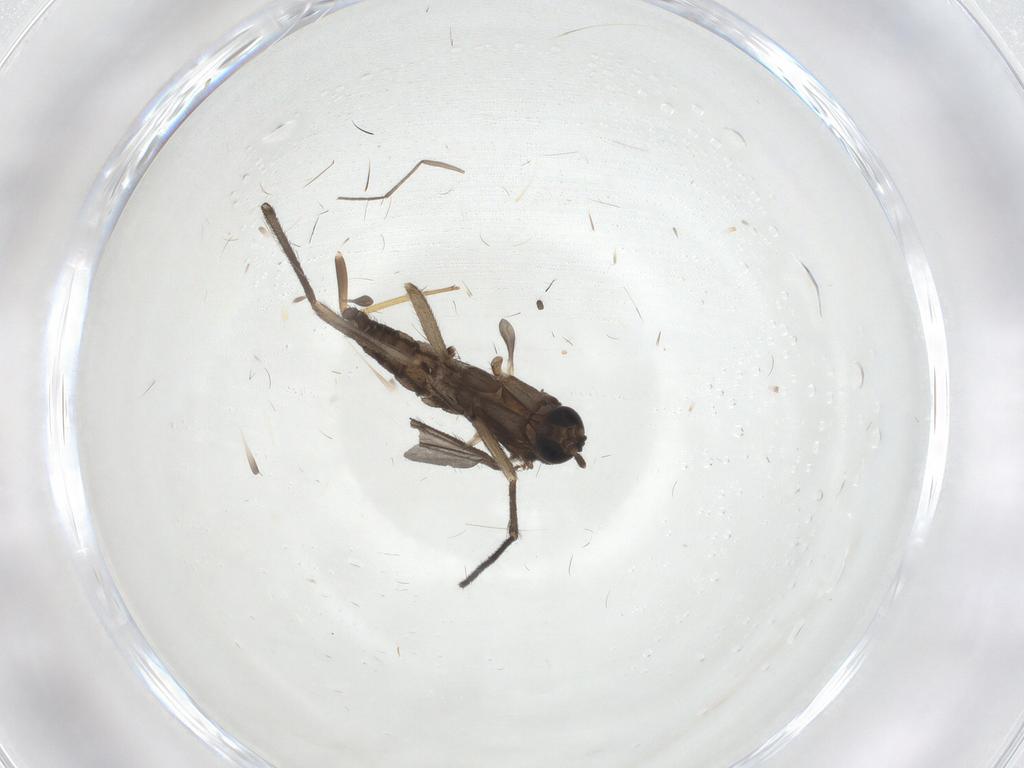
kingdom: Animalia
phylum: Arthropoda
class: Insecta
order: Diptera
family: Sciaridae
